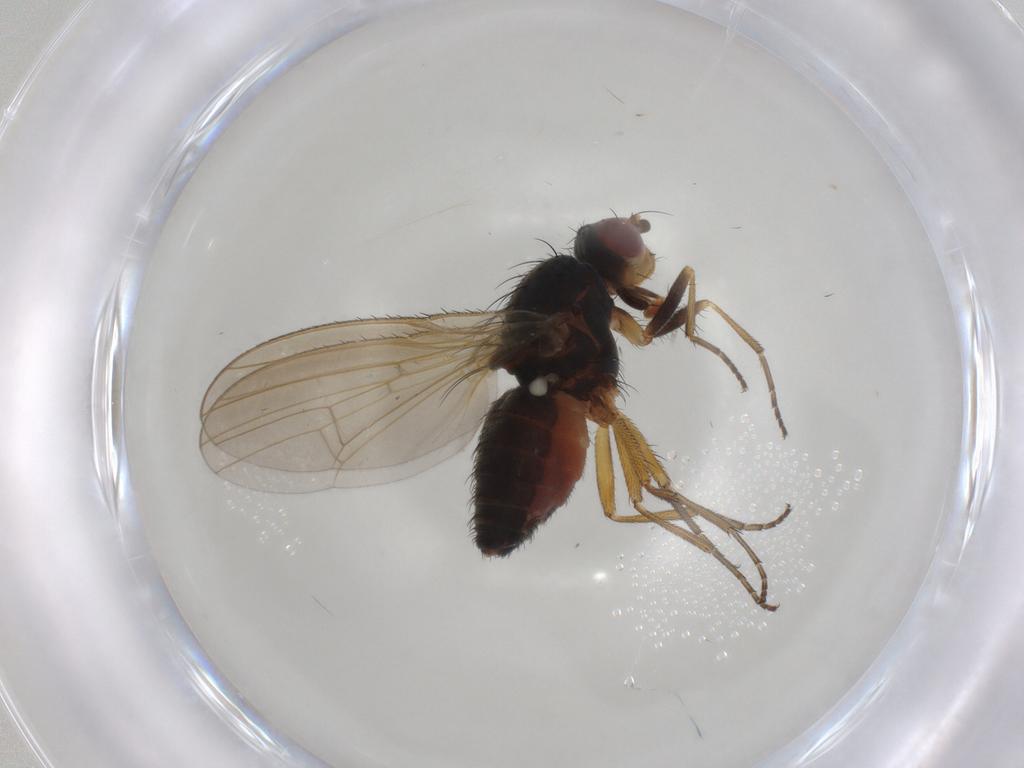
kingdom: Animalia
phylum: Arthropoda
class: Insecta
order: Diptera
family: Heleomyzidae
